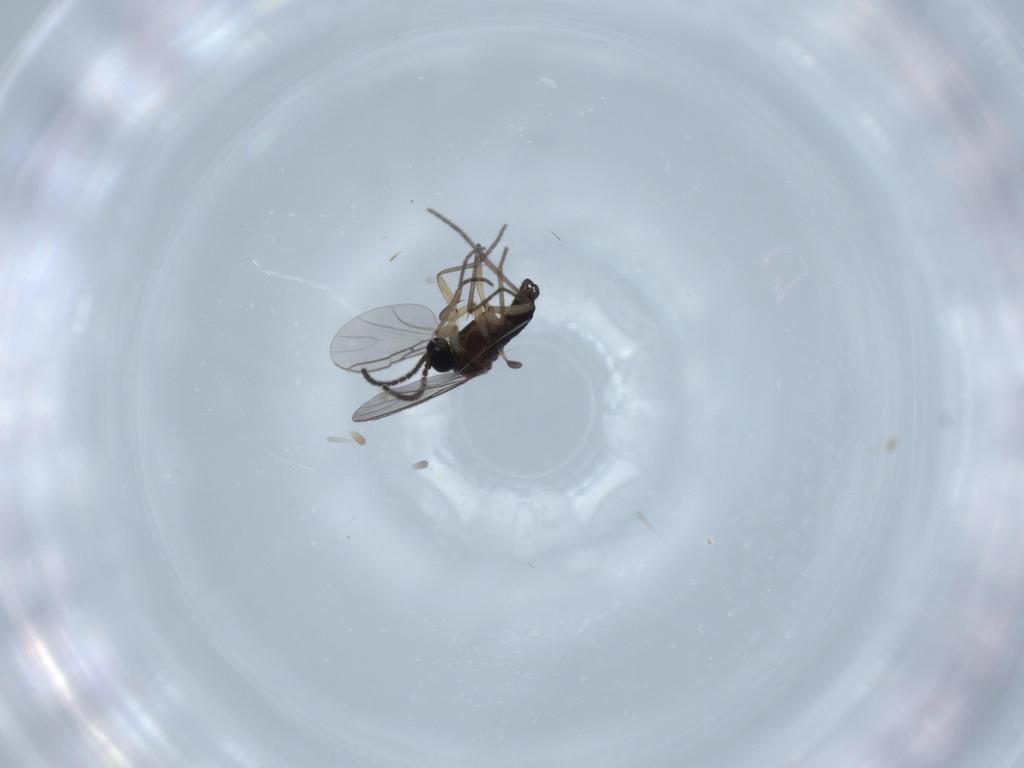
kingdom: Animalia
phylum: Arthropoda
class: Insecta
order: Diptera
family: Sciaridae
